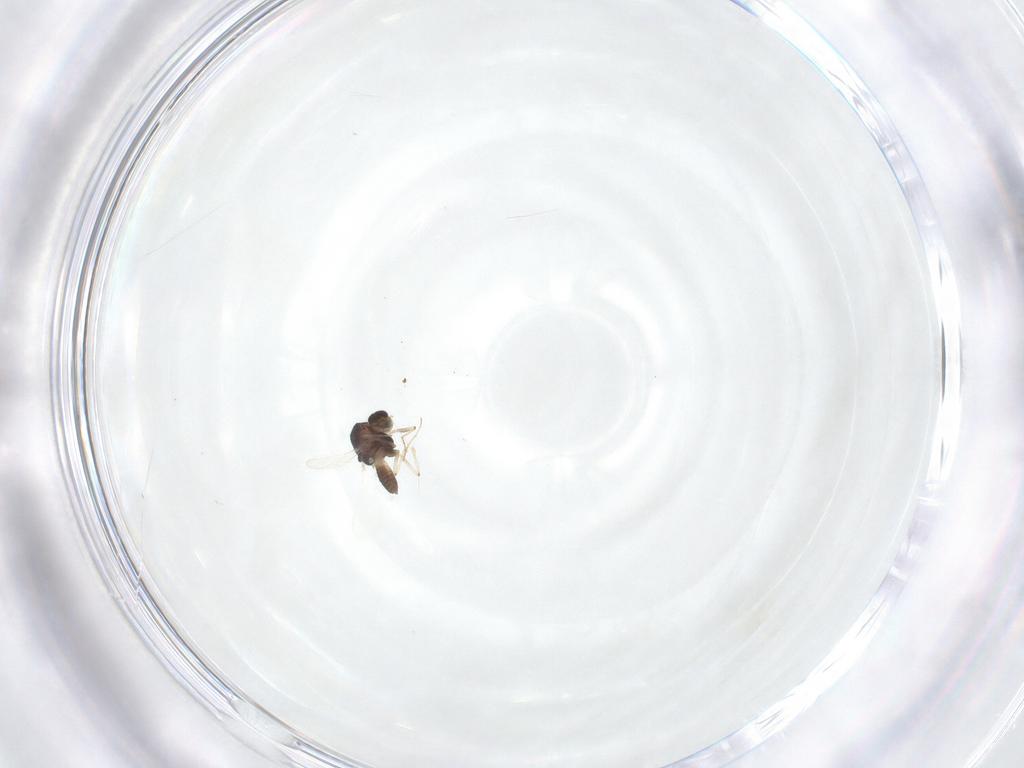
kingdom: Animalia
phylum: Arthropoda
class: Insecta
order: Diptera
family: Chironomidae
